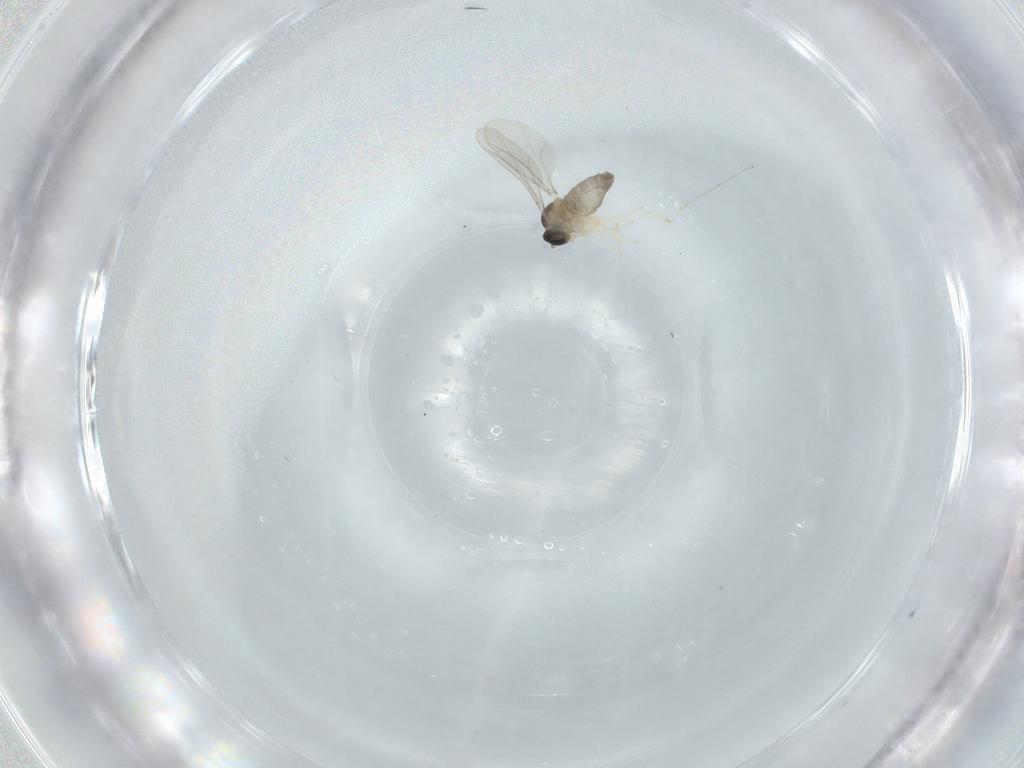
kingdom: Animalia
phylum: Arthropoda
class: Insecta
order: Diptera
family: Cecidomyiidae
